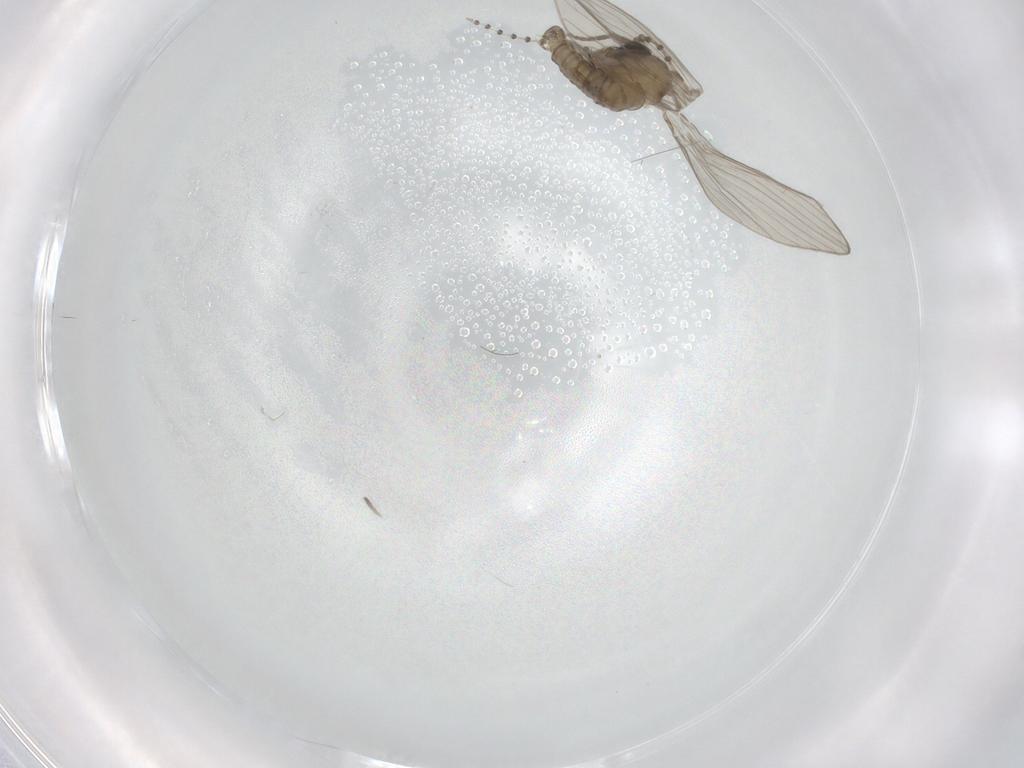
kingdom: Animalia
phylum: Arthropoda
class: Insecta
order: Diptera
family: Psychodidae
